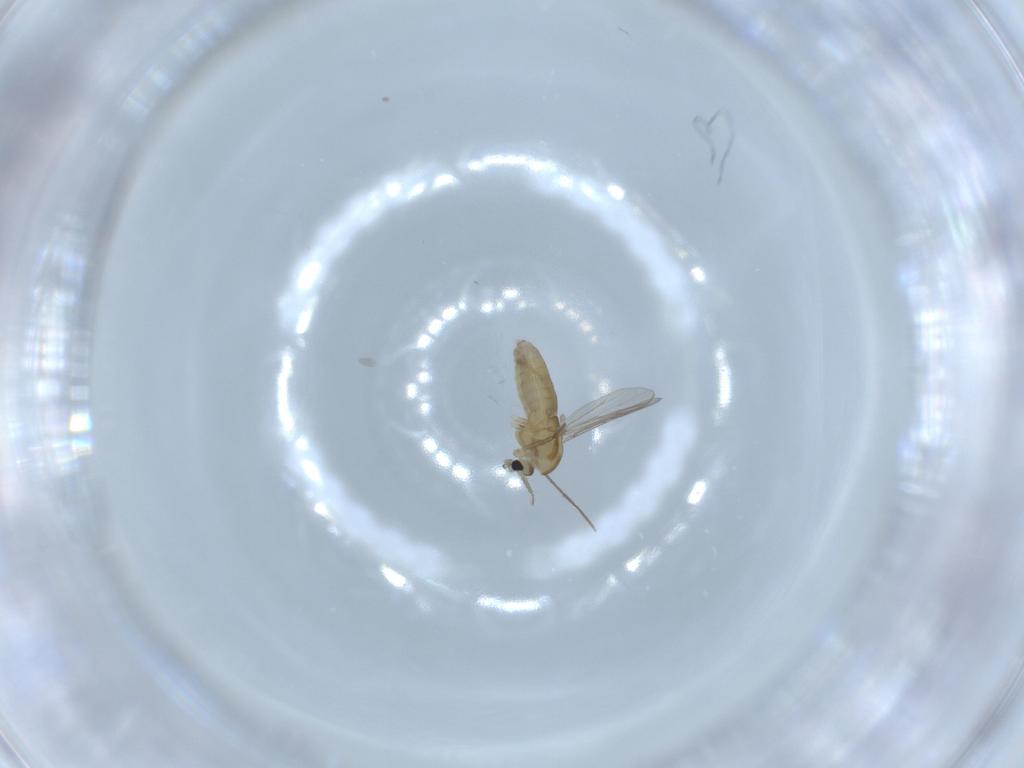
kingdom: Animalia
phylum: Arthropoda
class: Insecta
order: Diptera
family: Chironomidae
